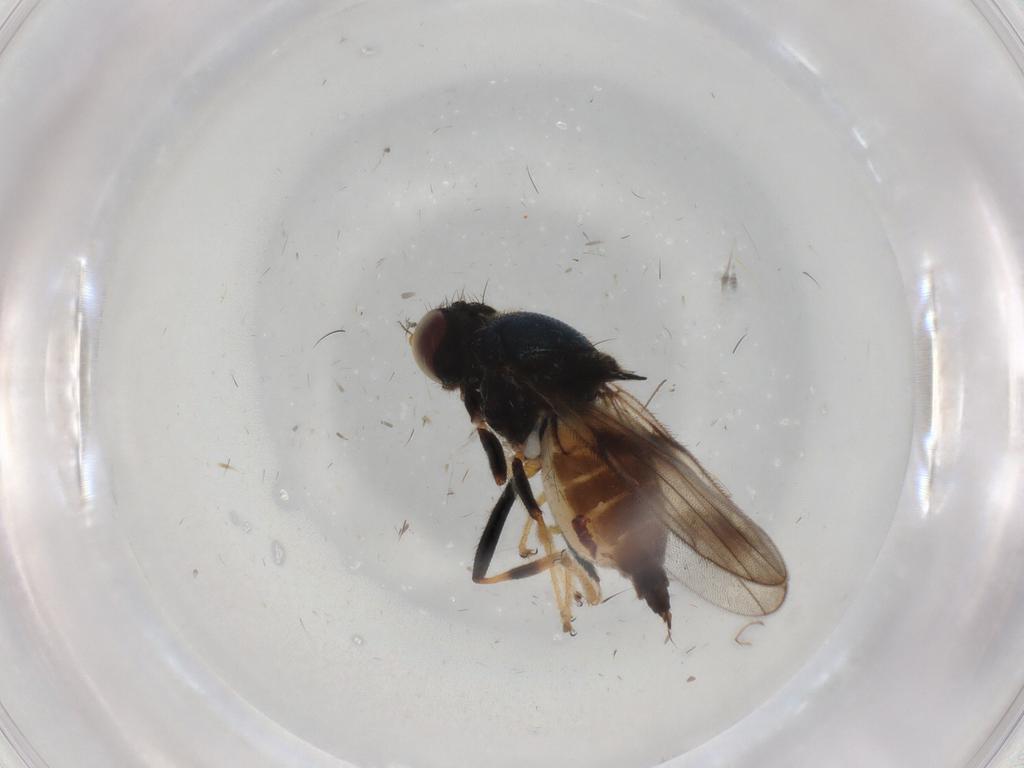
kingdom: Animalia
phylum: Arthropoda
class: Insecta
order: Diptera
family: Chloropidae
